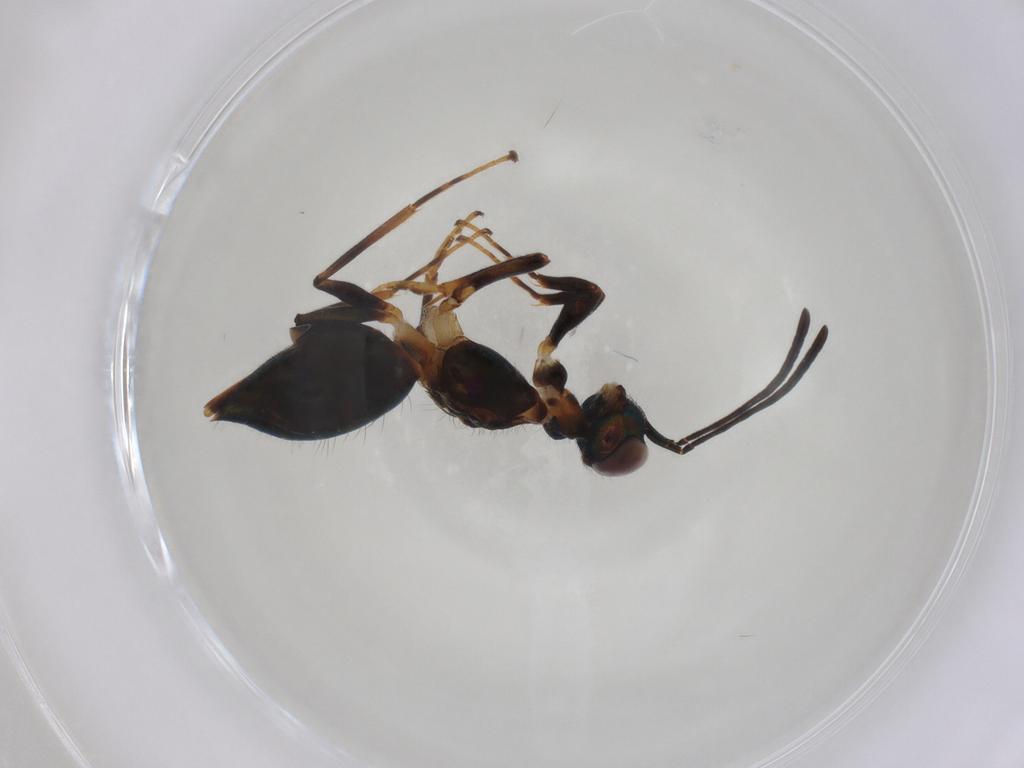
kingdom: Animalia
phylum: Arthropoda
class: Insecta
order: Hymenoptera
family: Eupelmidae
